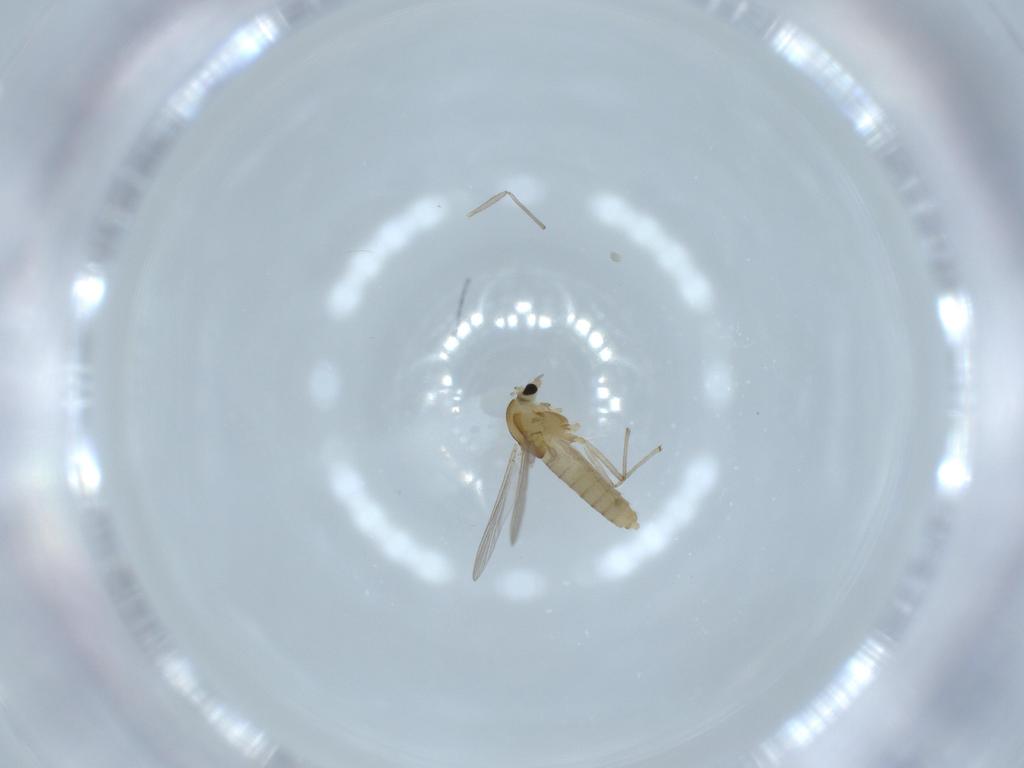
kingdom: Animalia
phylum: Arthropoda
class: Insecta
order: Diptera
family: Chironomidae
